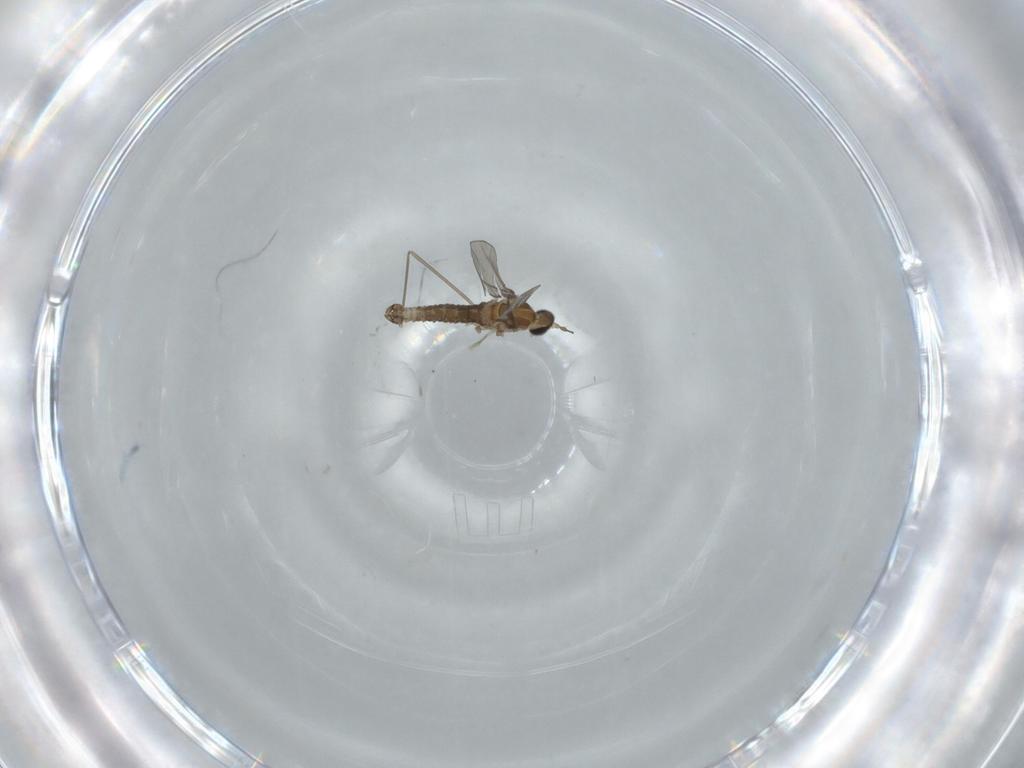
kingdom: Animalia
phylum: Arthropoda
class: Insecta
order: Diptera
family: Cecidomyiidae
